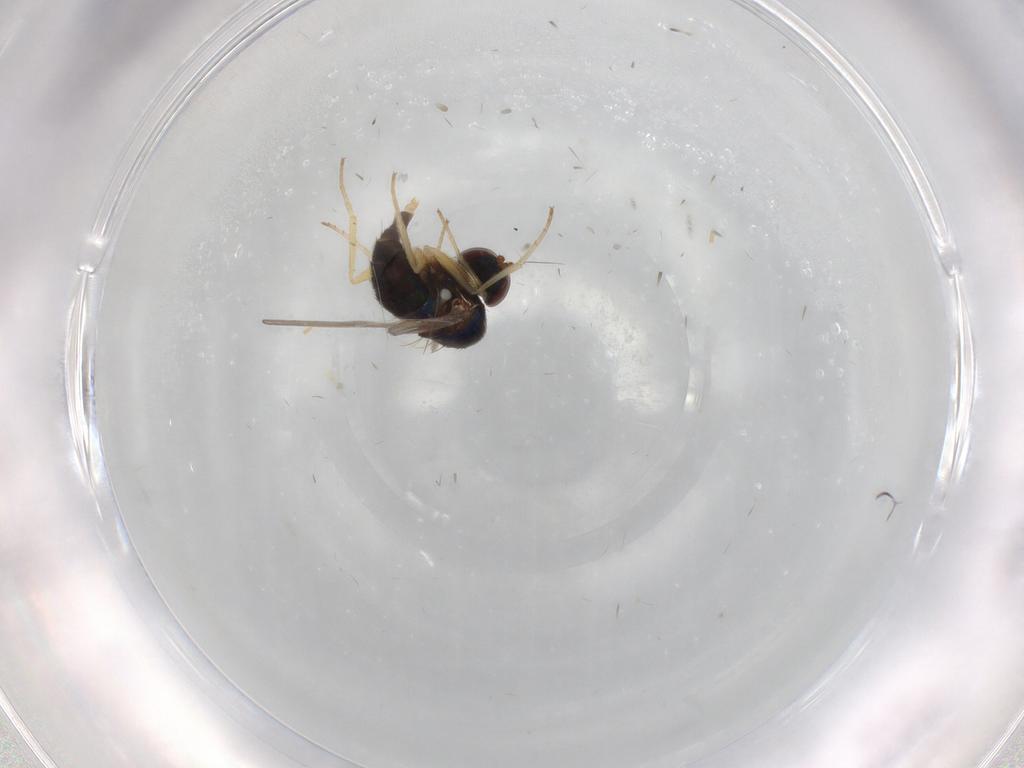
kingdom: Animalia
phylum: Arthropoda
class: Insecta
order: Diptera
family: Dolichopodidae
